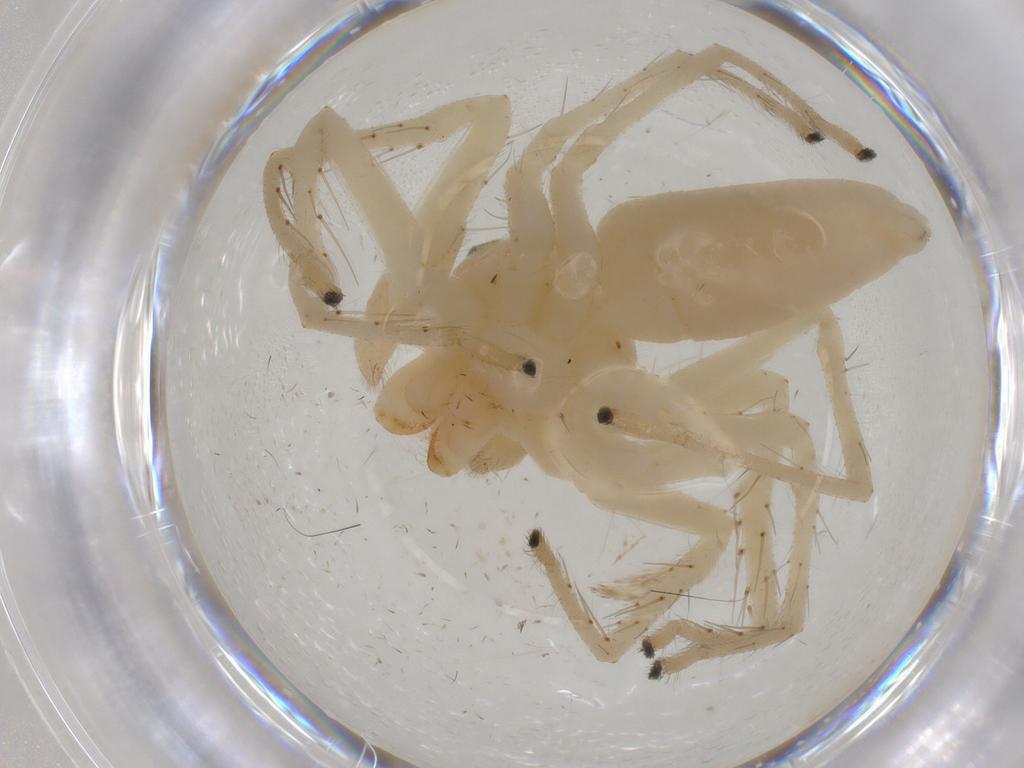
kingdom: Animalia
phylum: Arthropoda
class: Arachnida
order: Araneae
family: Salticidae
